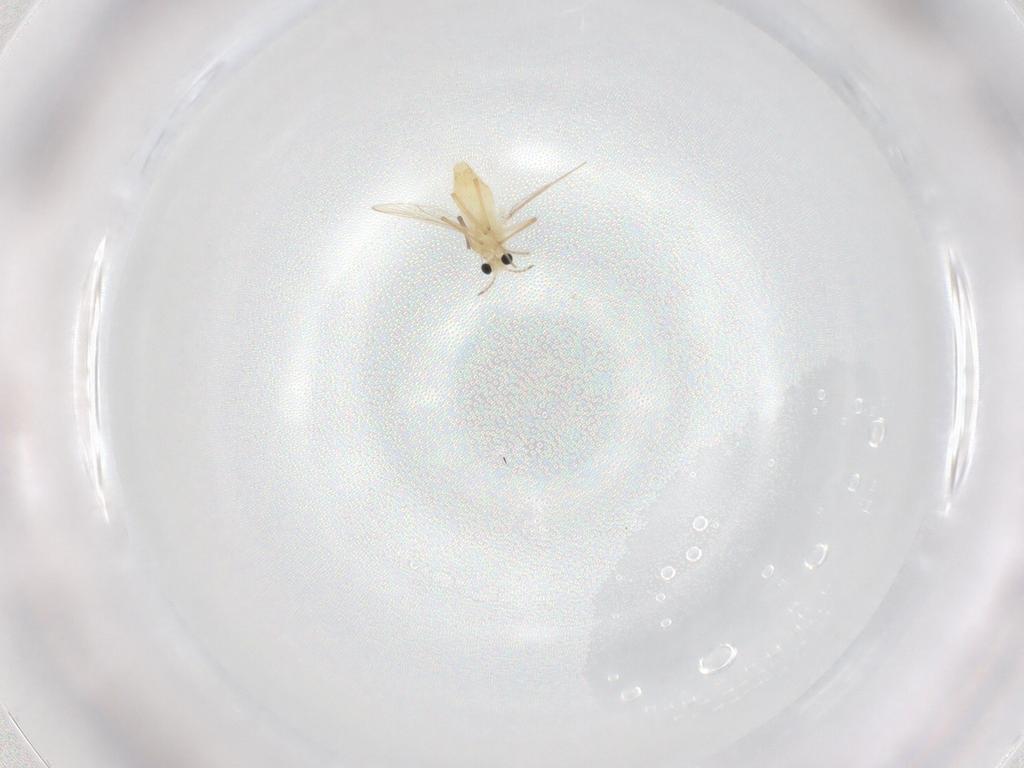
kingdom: Animalia
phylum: Arthropoda
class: Insecta
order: Diptera
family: Chironomidae
